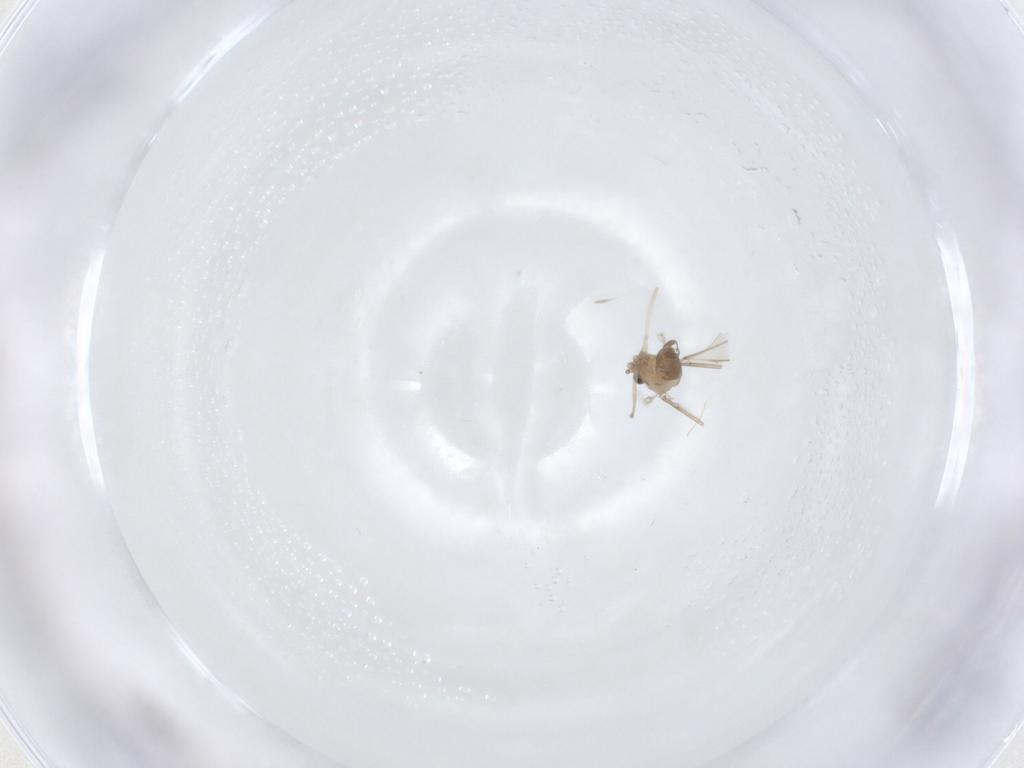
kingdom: Animalia
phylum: Arthropoda
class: Insecta
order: Diptera
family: Cecidomyiidae
